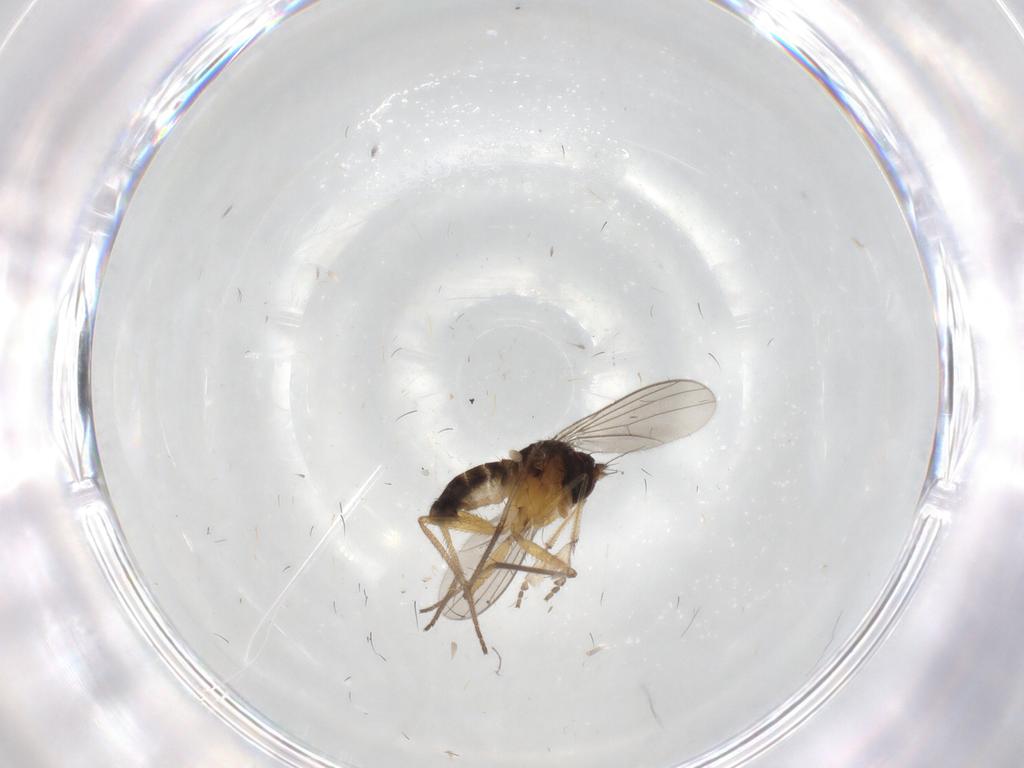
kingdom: Animalia
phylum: Arthropoda
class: Insecta
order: Diptera
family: Dolichopodidae
